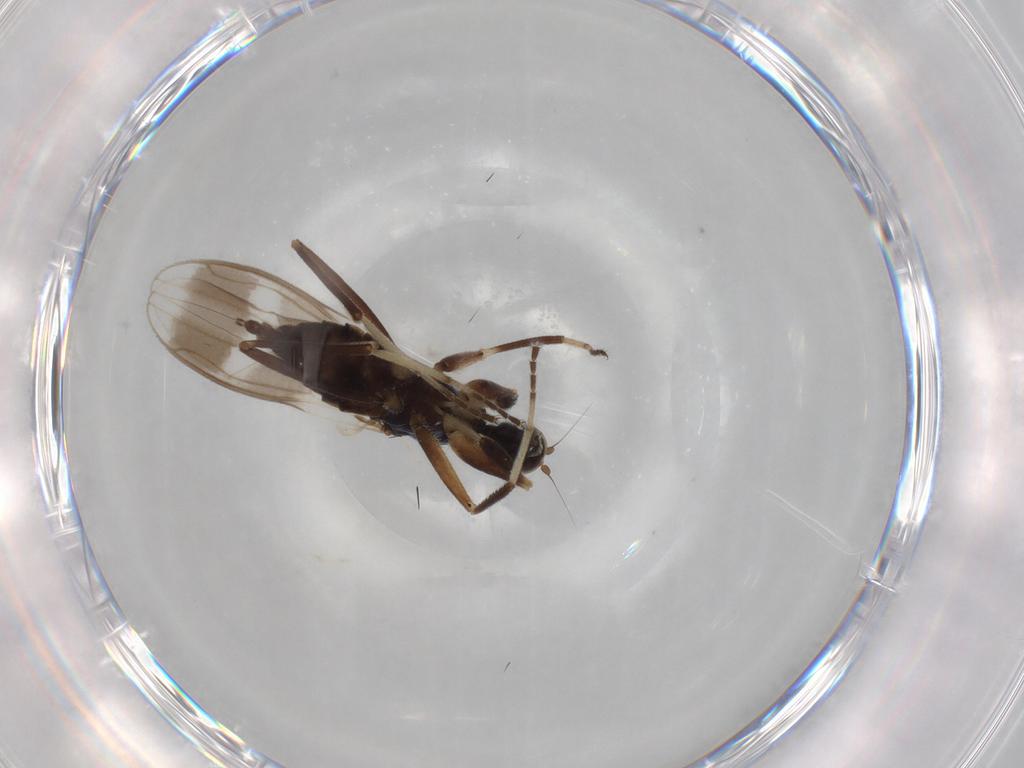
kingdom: Animalia
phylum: Arthropoda
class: Insecta
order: Diptera
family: Hybotidae
